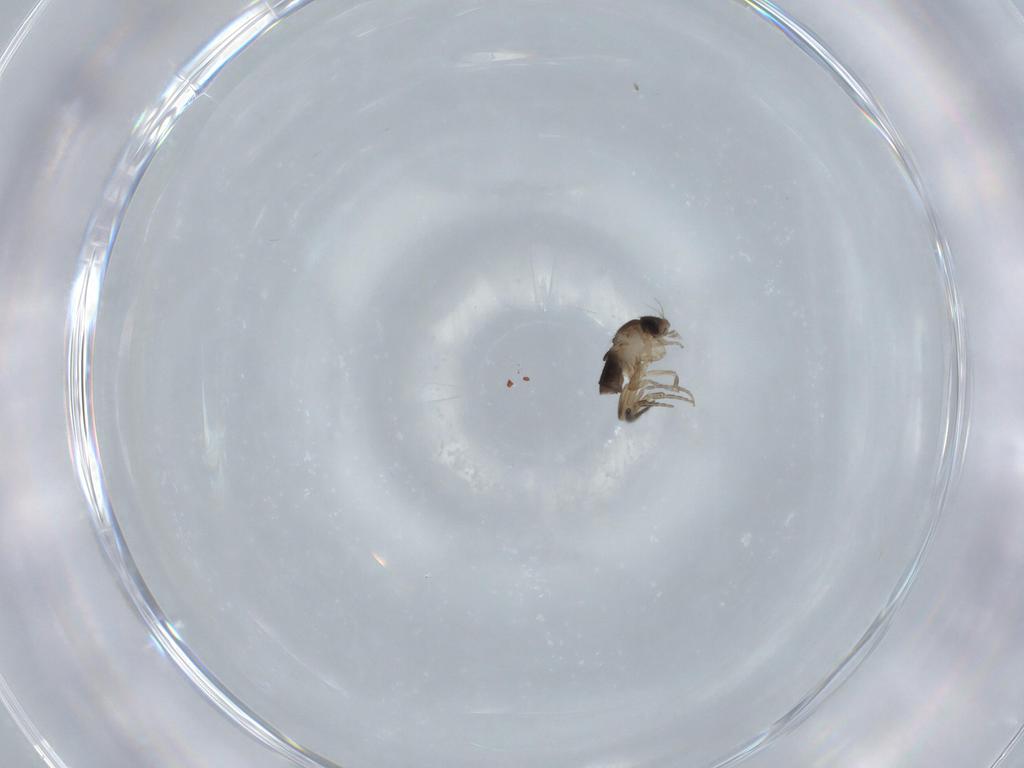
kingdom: Animalia
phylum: Arthropoda
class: Insecta
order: Diptera
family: Phoridae
